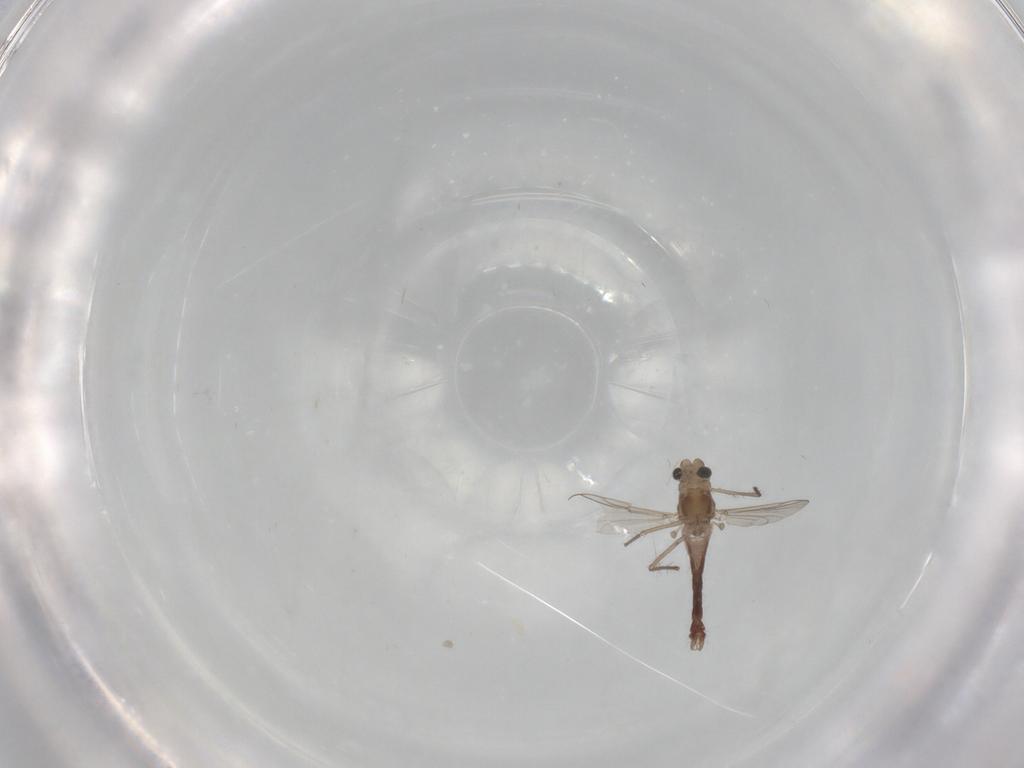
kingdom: Animalia
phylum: Arthropoda
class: Insecta
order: Diptera
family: Chironomidae
